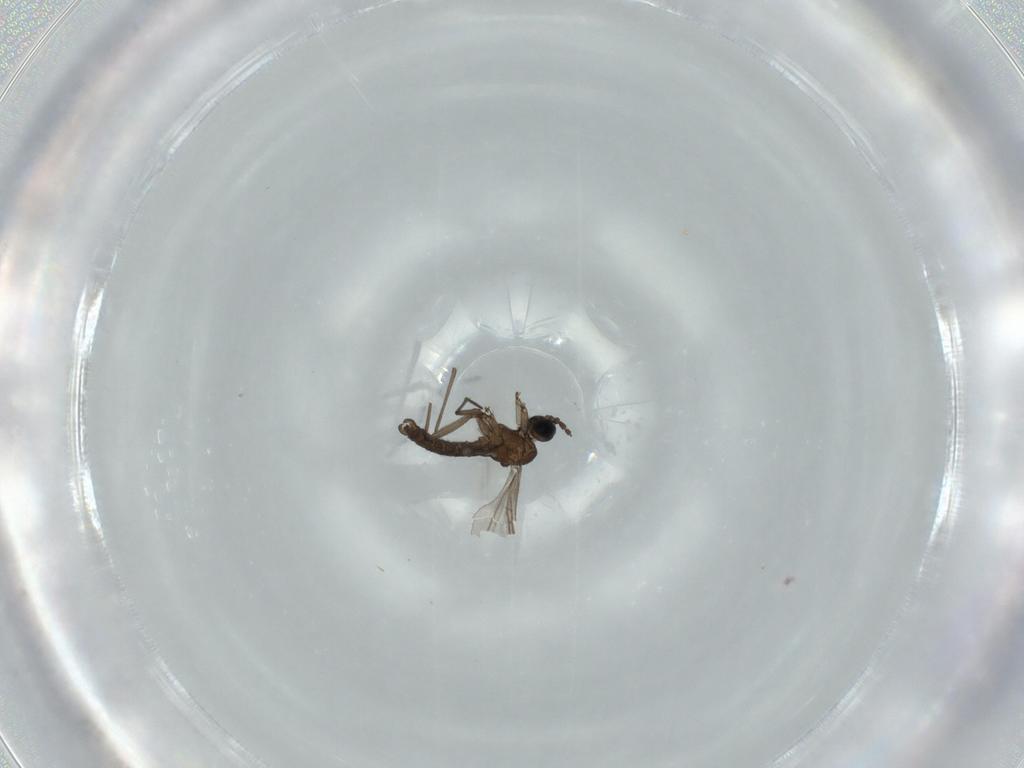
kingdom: Animalia
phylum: Arthropoda
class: Insecta
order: Diptera
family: Sciaridae
